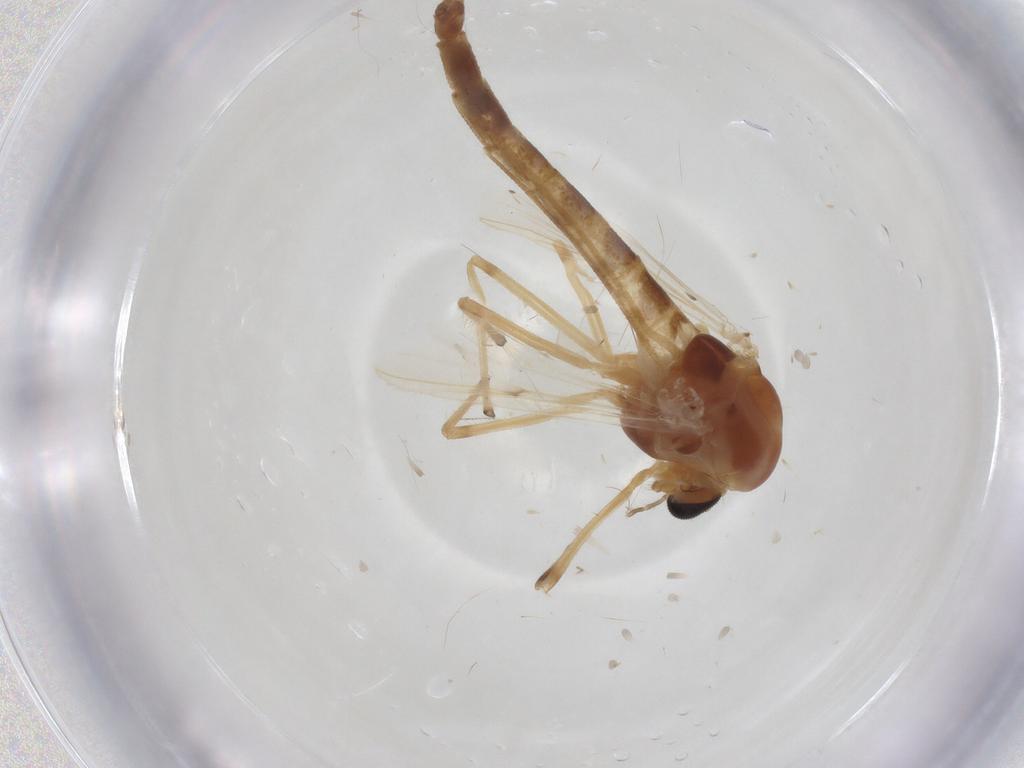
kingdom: Animalia
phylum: Arthropoda
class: Insecta
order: Diptera
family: Chironomidae
